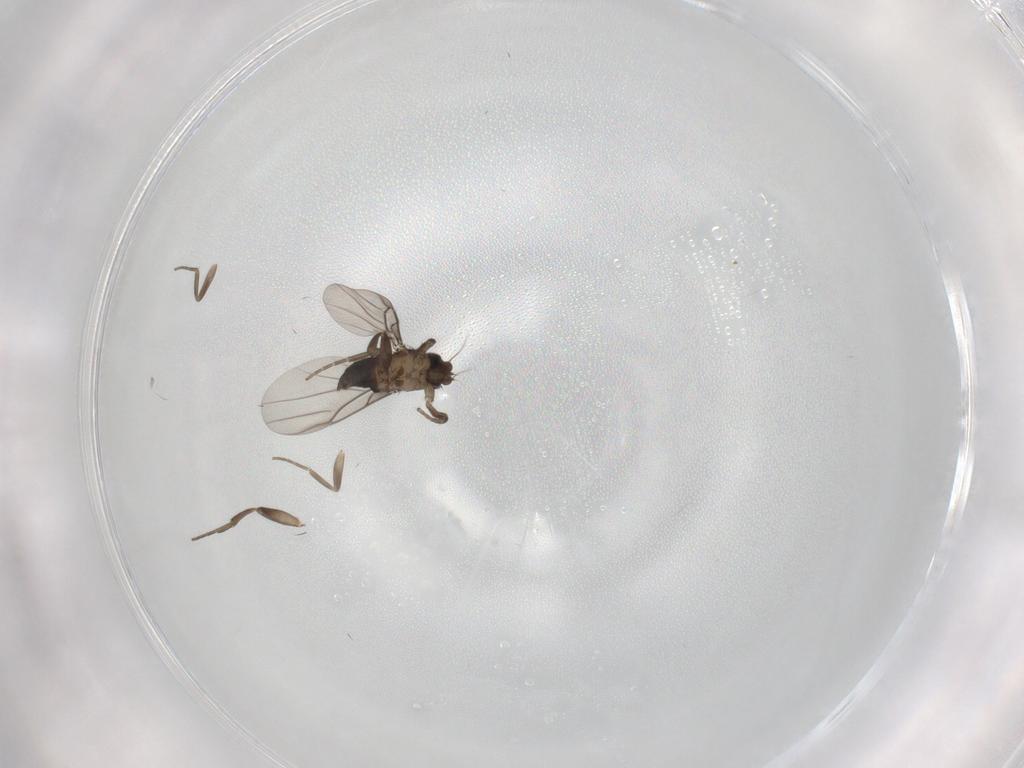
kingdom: Animalia
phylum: Arthropoda
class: Insecta
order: Diptera
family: Phoridae
